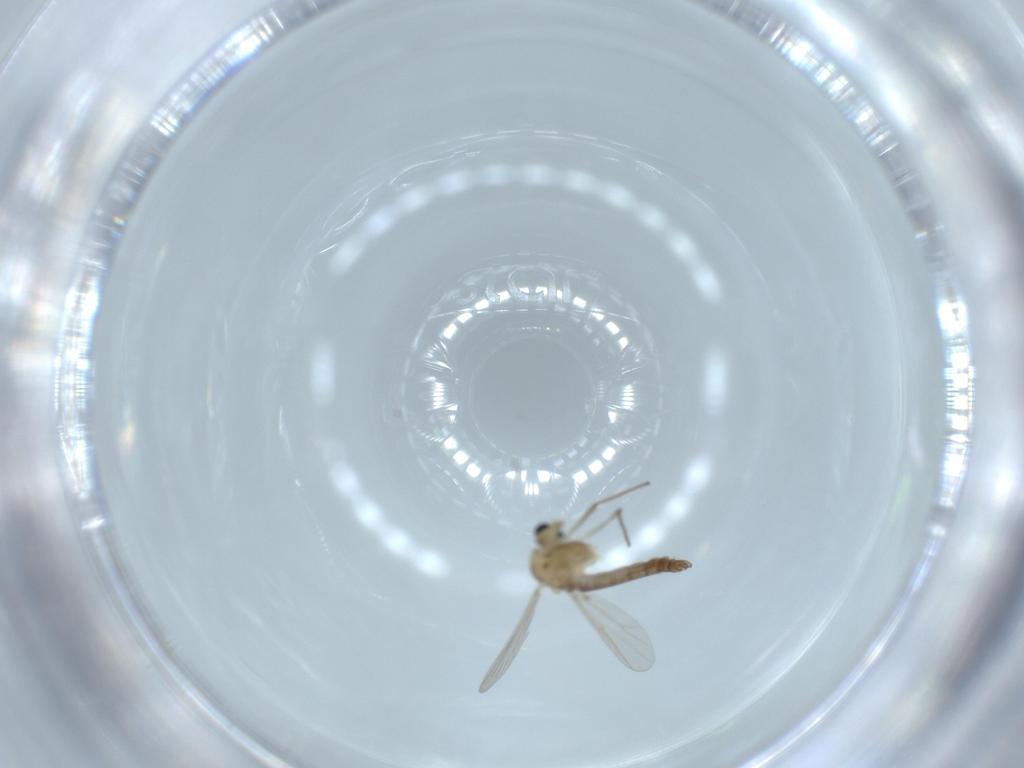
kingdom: Animalia
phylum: Arthropoda
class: Insecta
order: Diptera
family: Chironomidae
